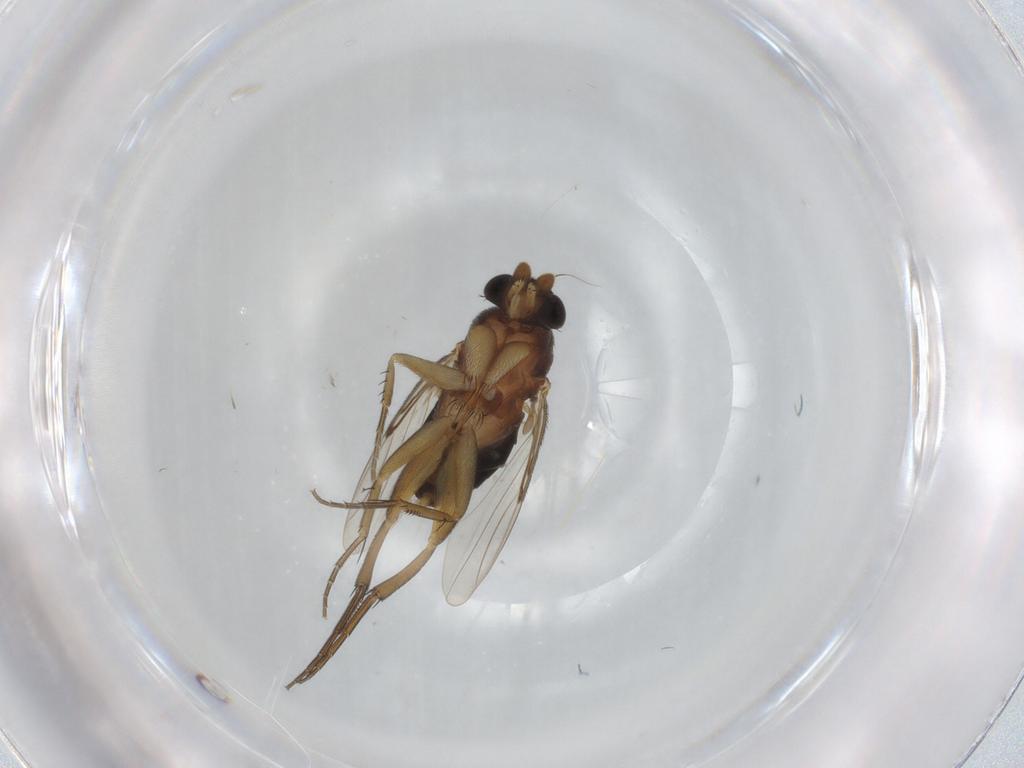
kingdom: Animalia
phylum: Arthropoda
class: Insecta
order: Diptera
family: Phoridae
